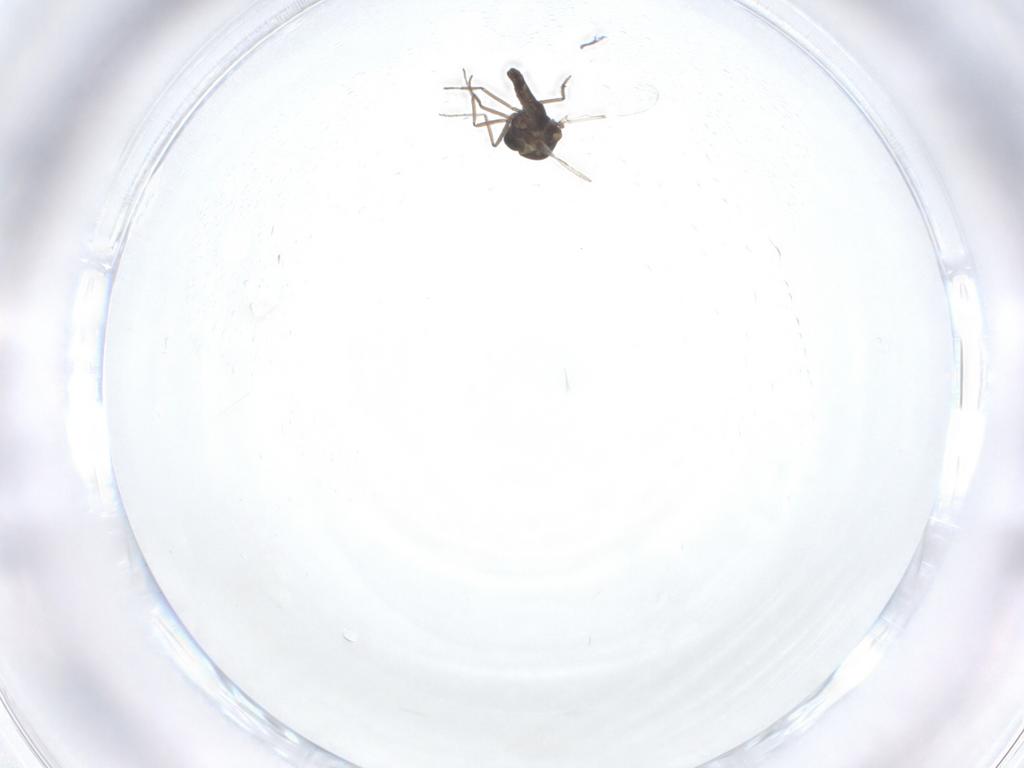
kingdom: Animalia
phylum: Arthropoda
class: Insecta
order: Diptera
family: Ceratopogonidae
